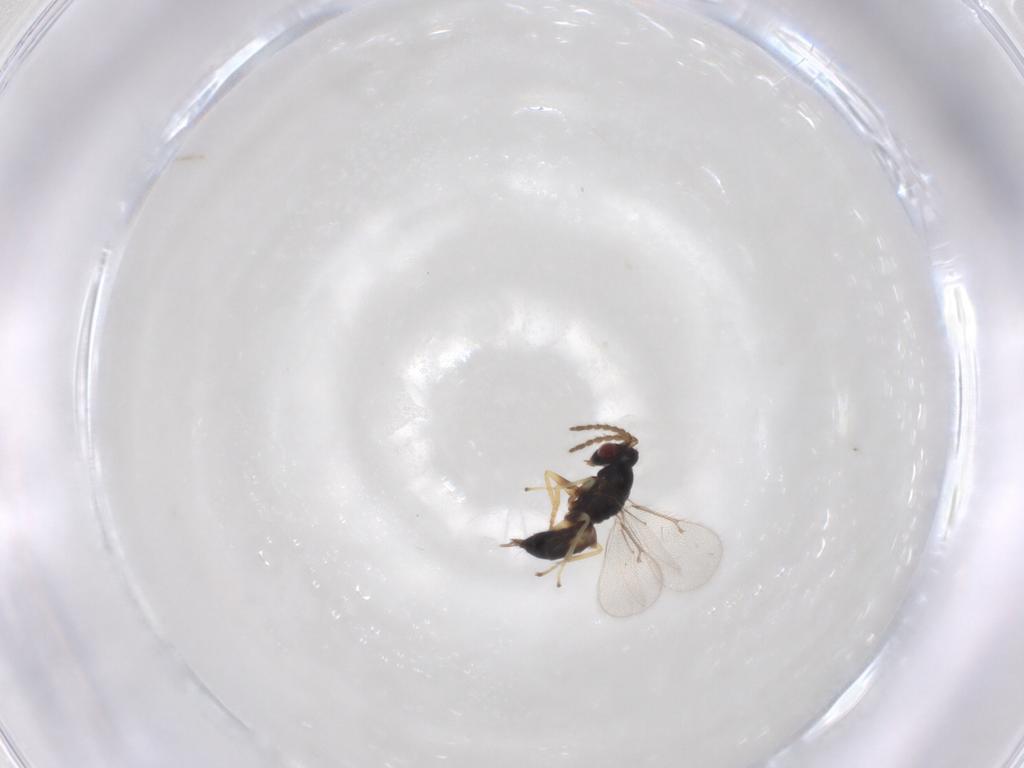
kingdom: Animalia
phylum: Arthropoda
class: Insecta
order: Hymenoptera
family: Eulophidae
